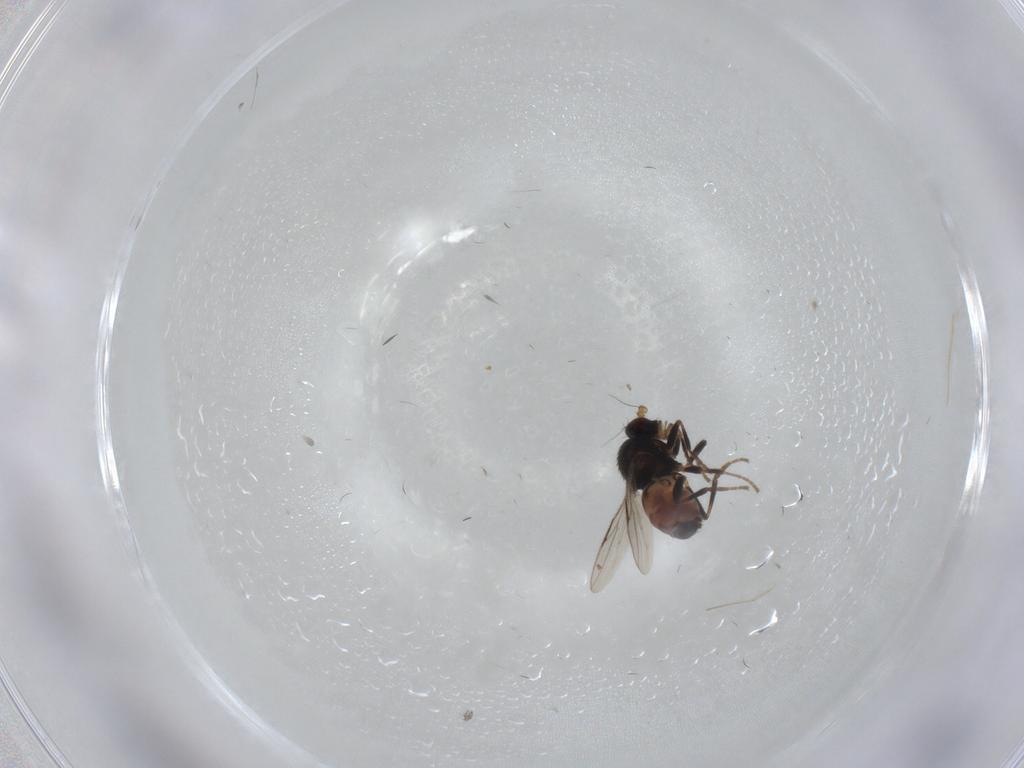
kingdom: Animalia
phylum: Arthropoda
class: Insecta
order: Diptera
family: Sphaeroceridae
